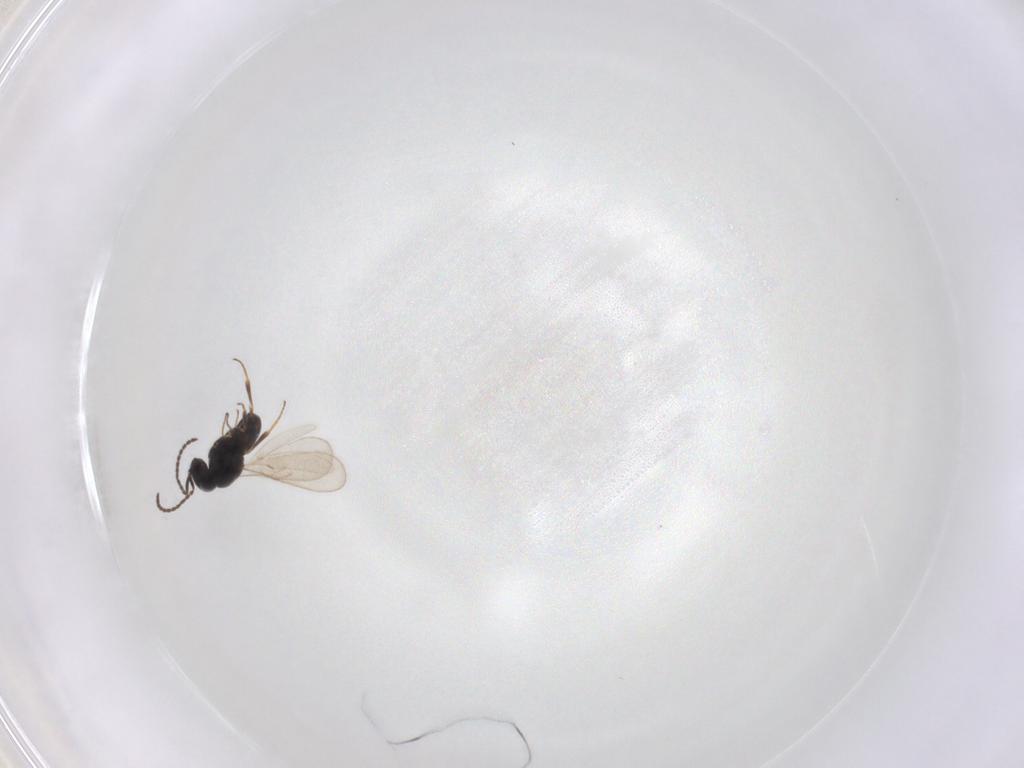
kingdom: Animalia
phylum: Arthropoda
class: Insecta
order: Hymenoptera
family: Scelionidae
